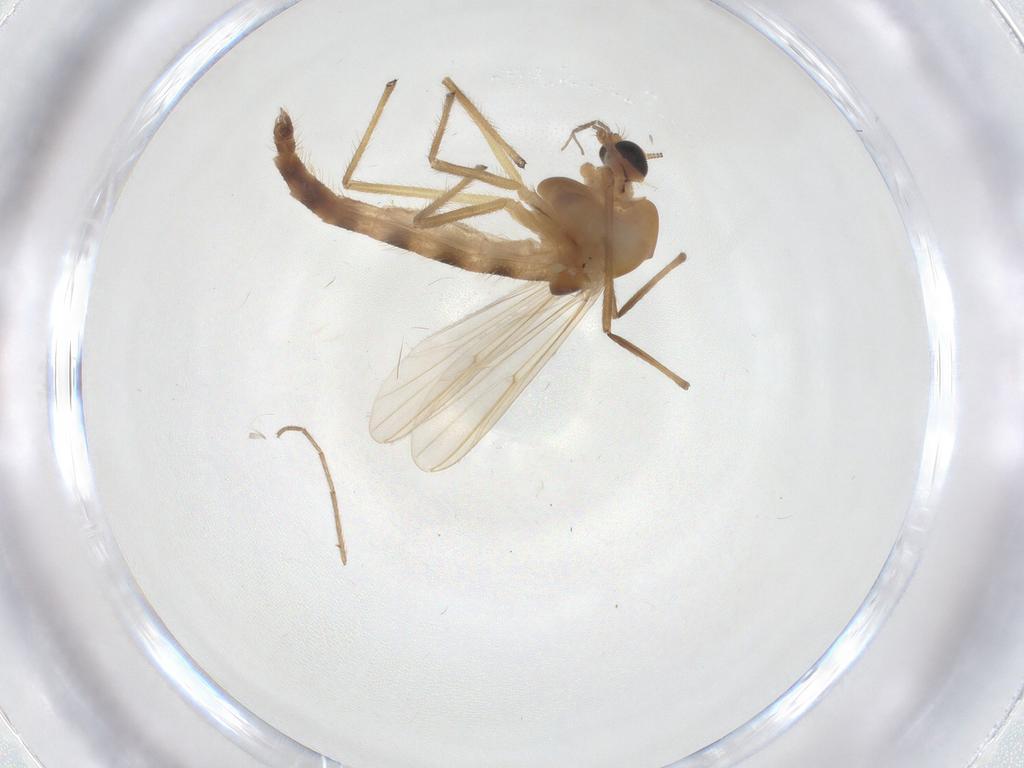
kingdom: Animalia
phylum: Arthropoda
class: Insecta
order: Diptera
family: Chironomidae
